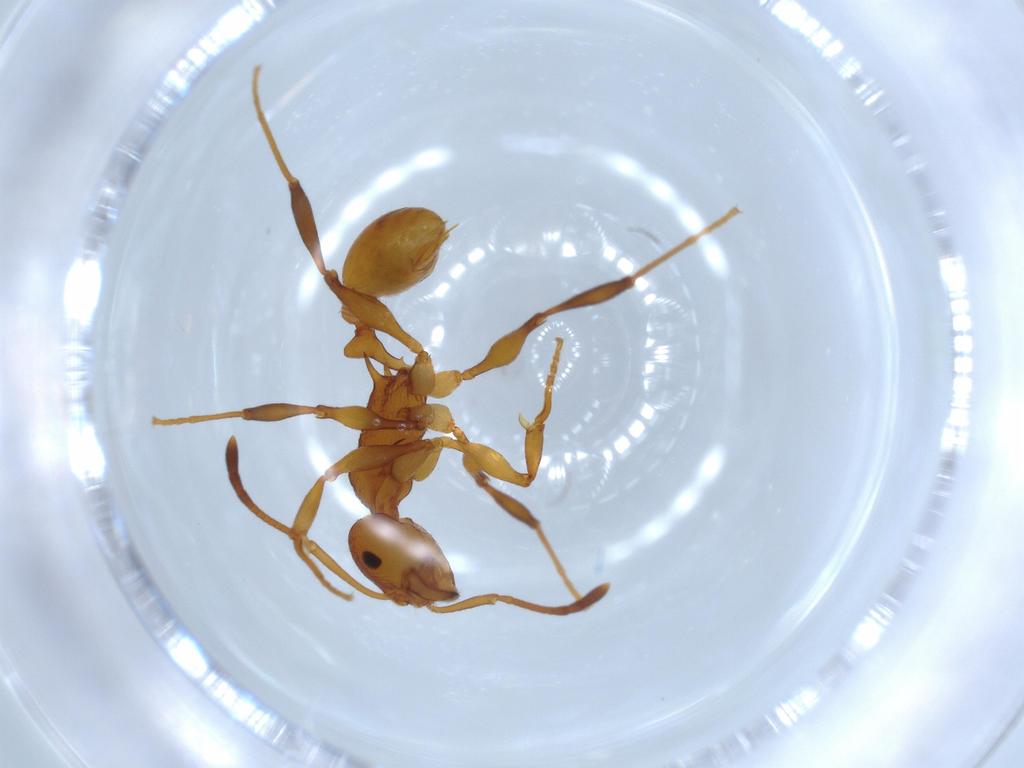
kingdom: Animalia
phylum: Arthropoda
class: Insecta
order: Hymenoptera
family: Formicidae
